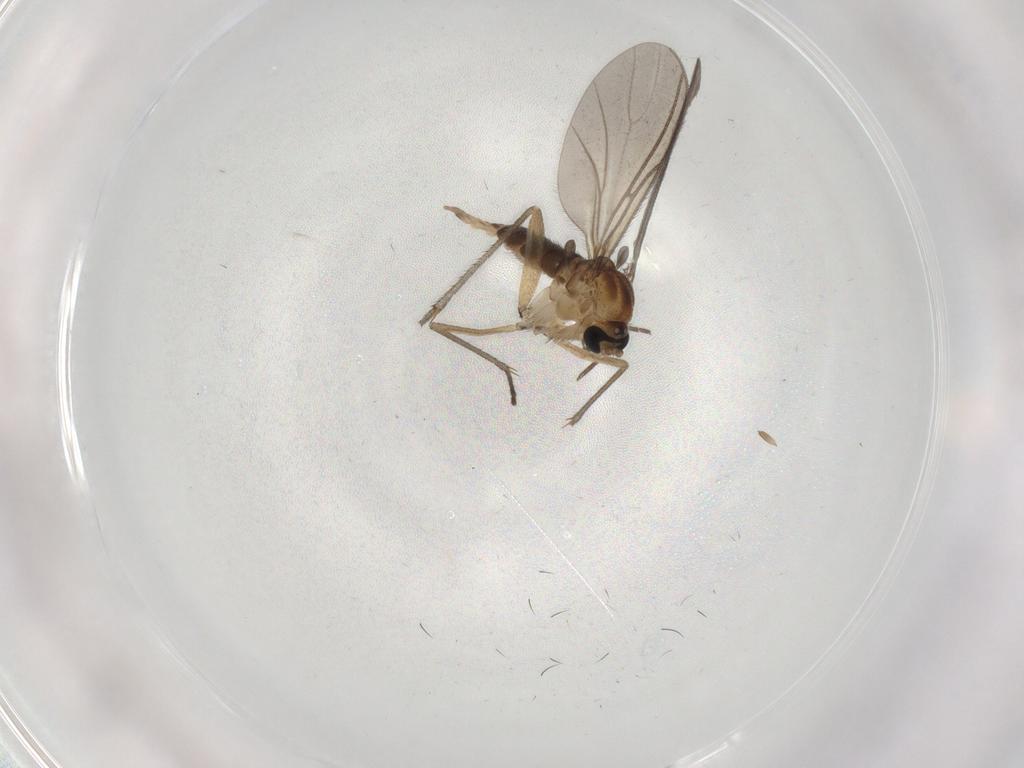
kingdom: Animalia
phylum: Arthropoda
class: Insecta
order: Diptera
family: Sciaridae
